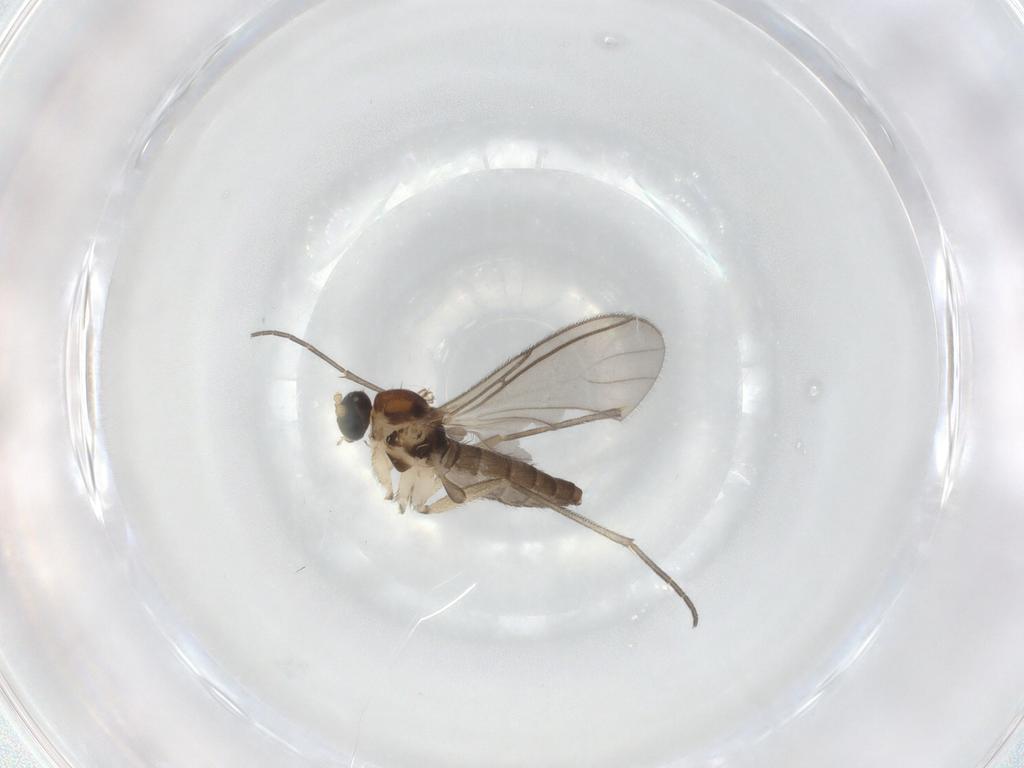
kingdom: Animalia
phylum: Arthropoda
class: Insecta
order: Diptera
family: Sciaridae
